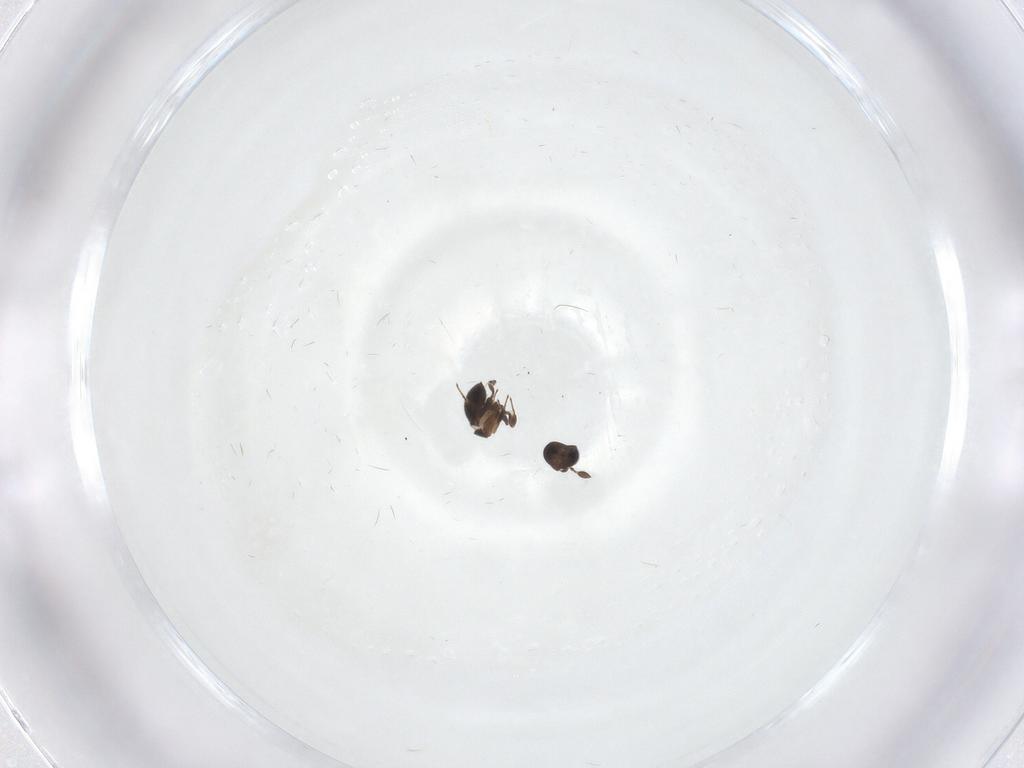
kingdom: Animalia
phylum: Arthropoda
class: Insecta
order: Hymenoptera
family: Scelionidae
